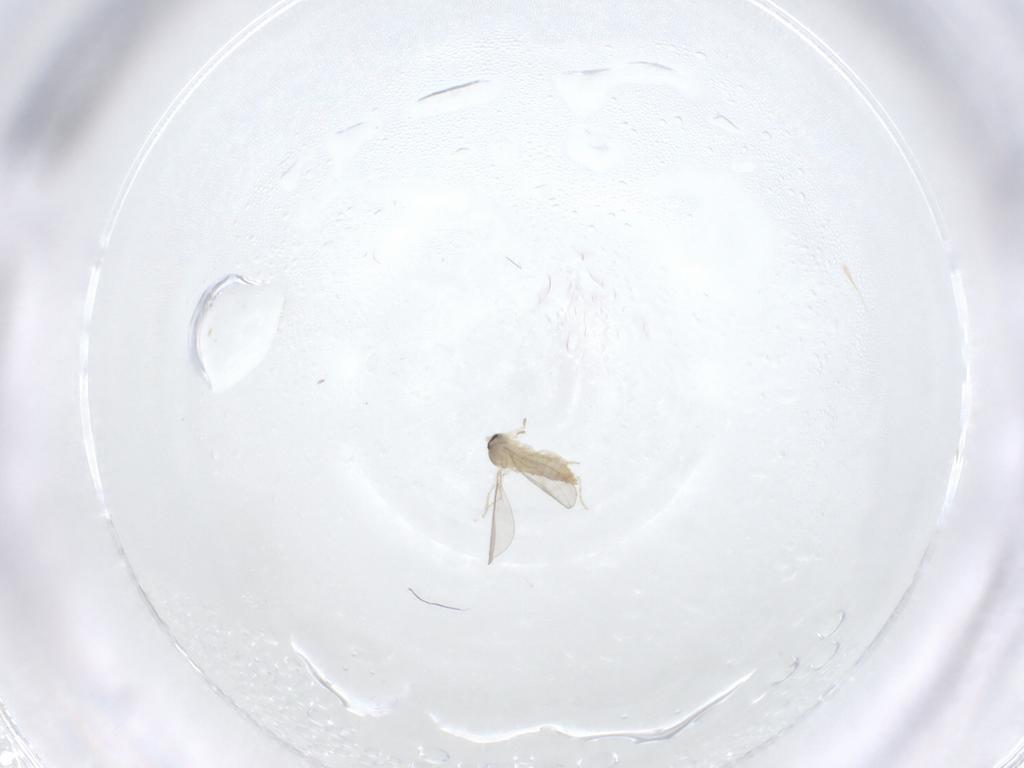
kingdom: Animalia
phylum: Arthropoda
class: Insecta
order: Diptera
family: Cecidomyiidae
